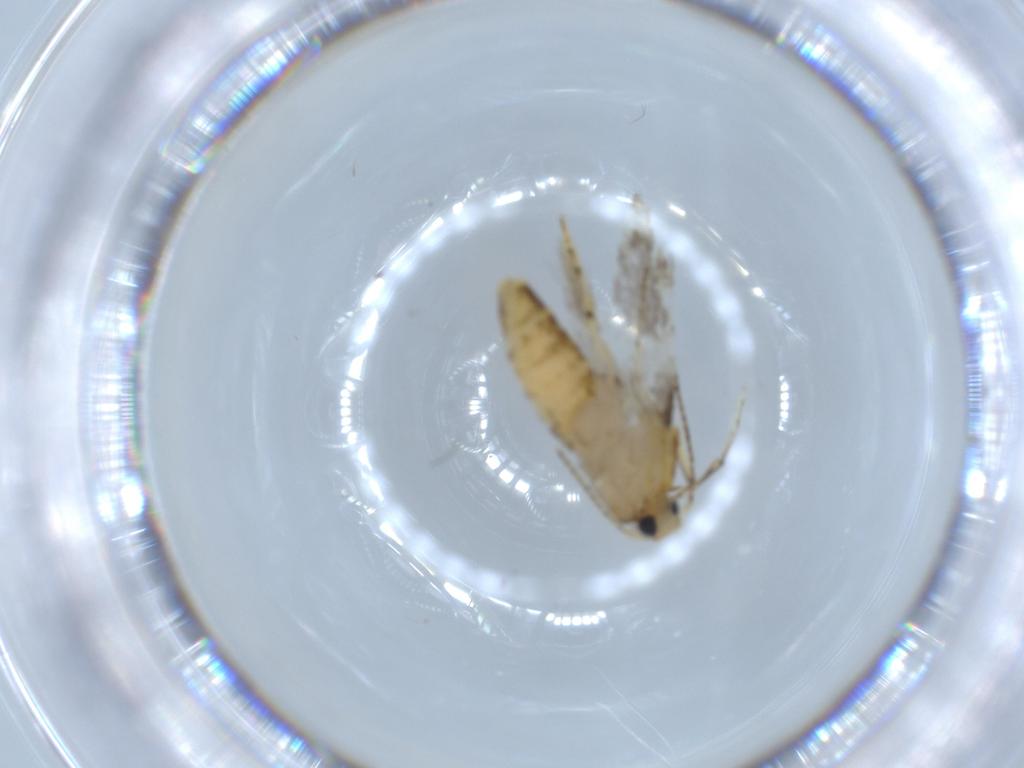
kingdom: Animalia
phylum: Arthropoda
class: Insecta
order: Lepidoptera
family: Argyresthiidae
